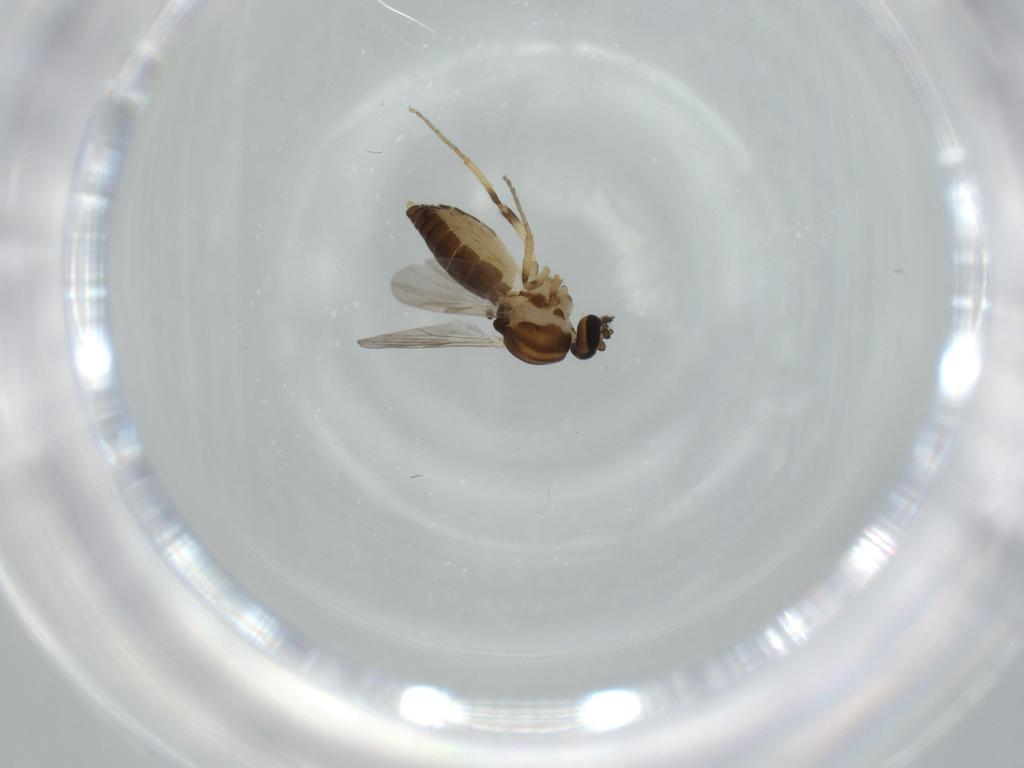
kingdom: Animalia
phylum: Arthropoda
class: Insecta
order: Diptera
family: Ceratopogonidae
